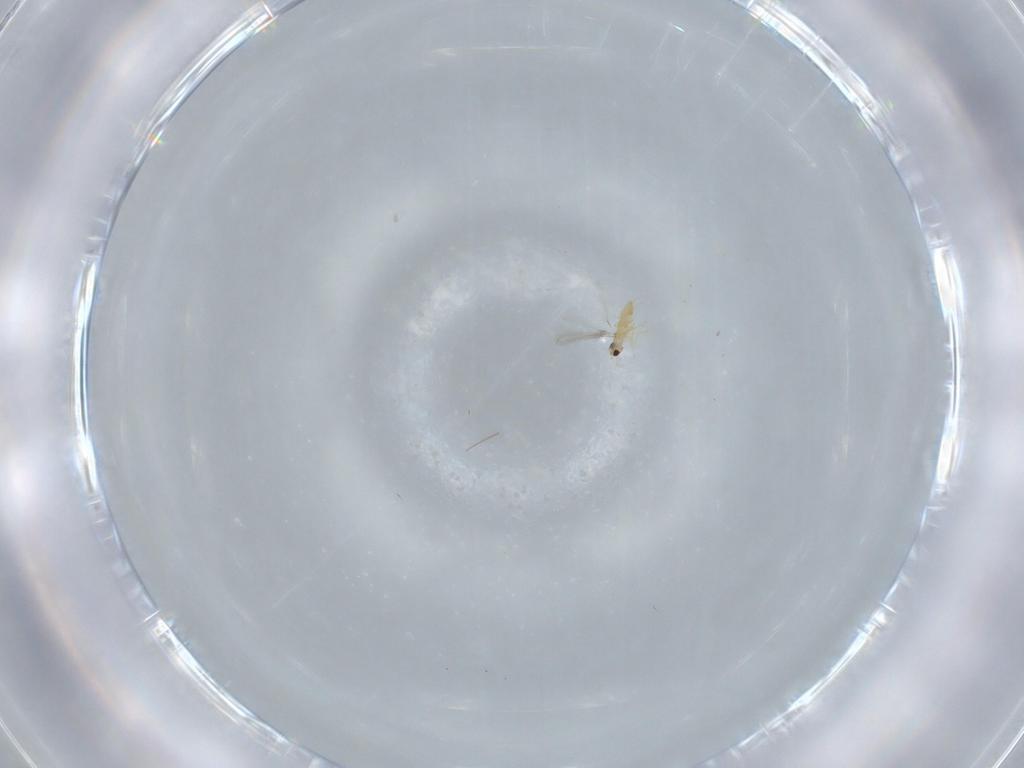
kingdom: Animalia
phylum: Arthropoda
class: Insecta
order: Hymenoptera
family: Mymaridae
